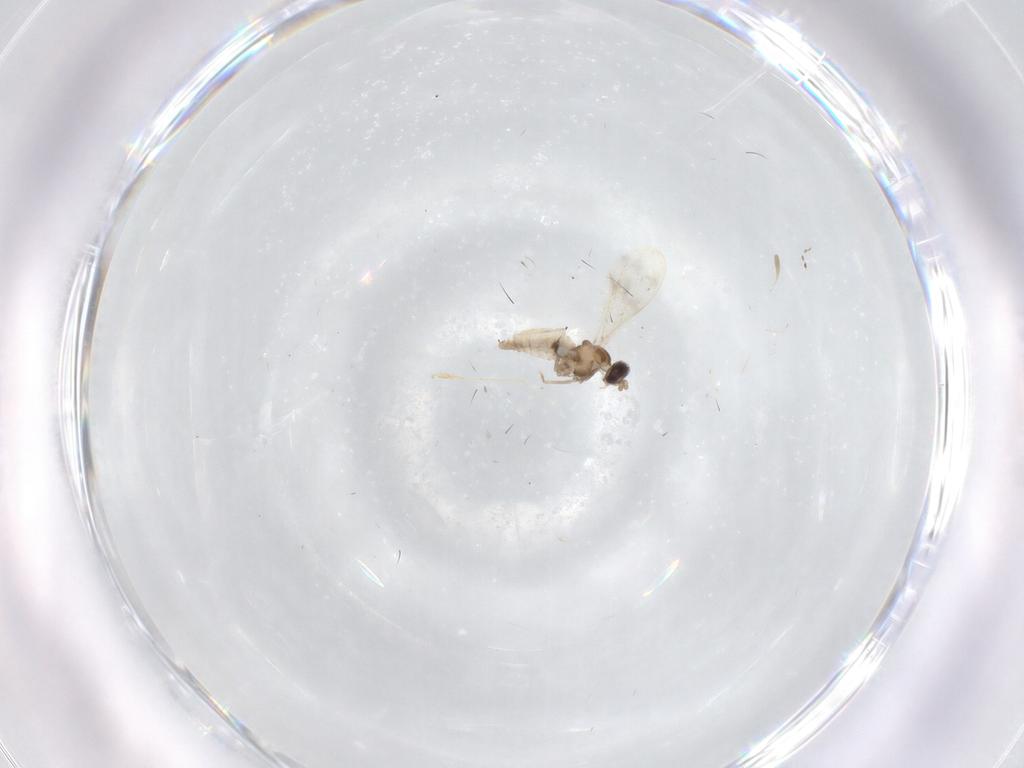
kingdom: Animalia
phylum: Arthropoda
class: Insecta
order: Diptera
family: Cecidomyiidae
